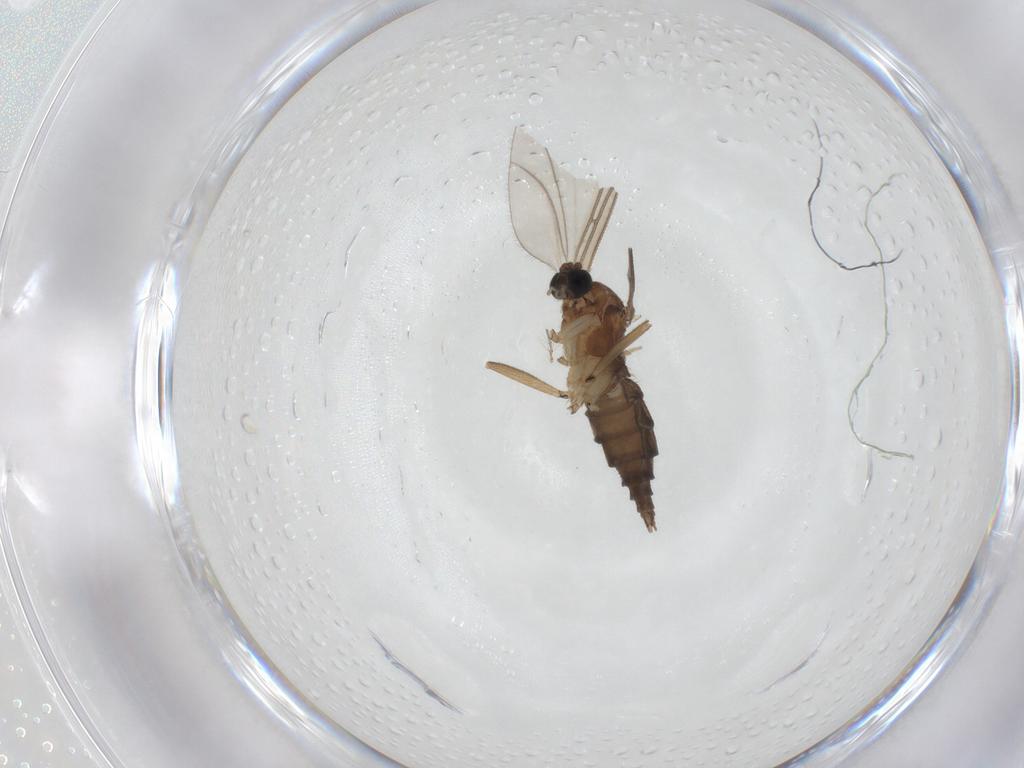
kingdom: Animalia
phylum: Arthropoda
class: Insecta
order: Diptera
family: Sciaridae
